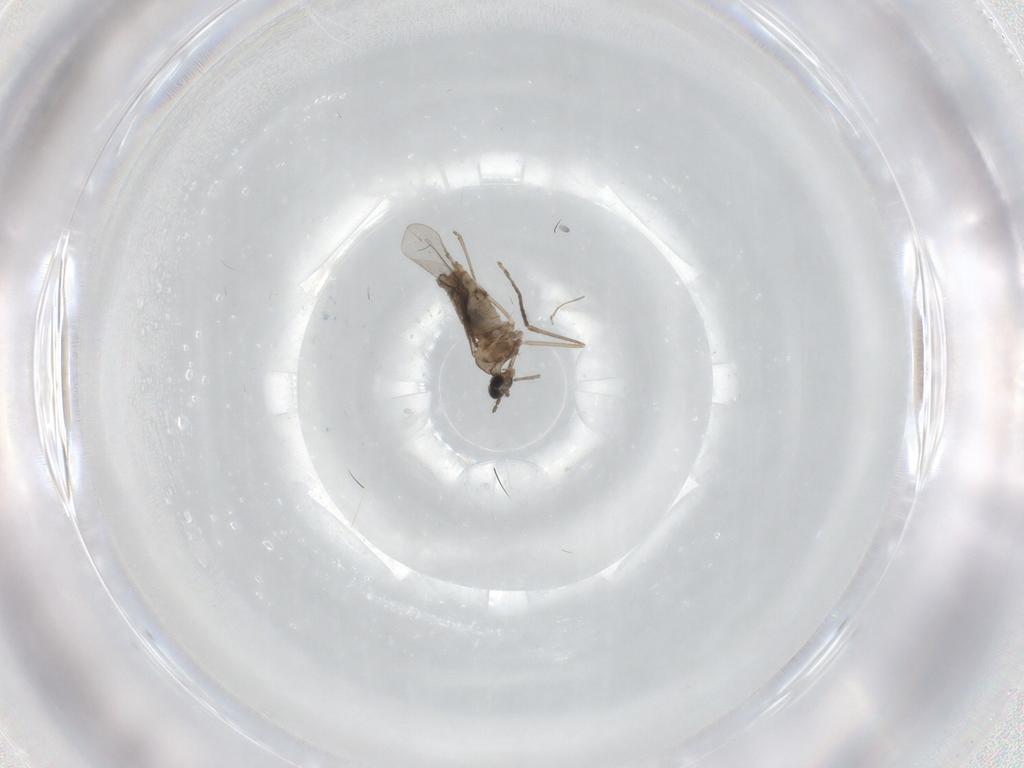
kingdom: Animalia
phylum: Arthropoda
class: Insecta
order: Diptera
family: Sciaridae
